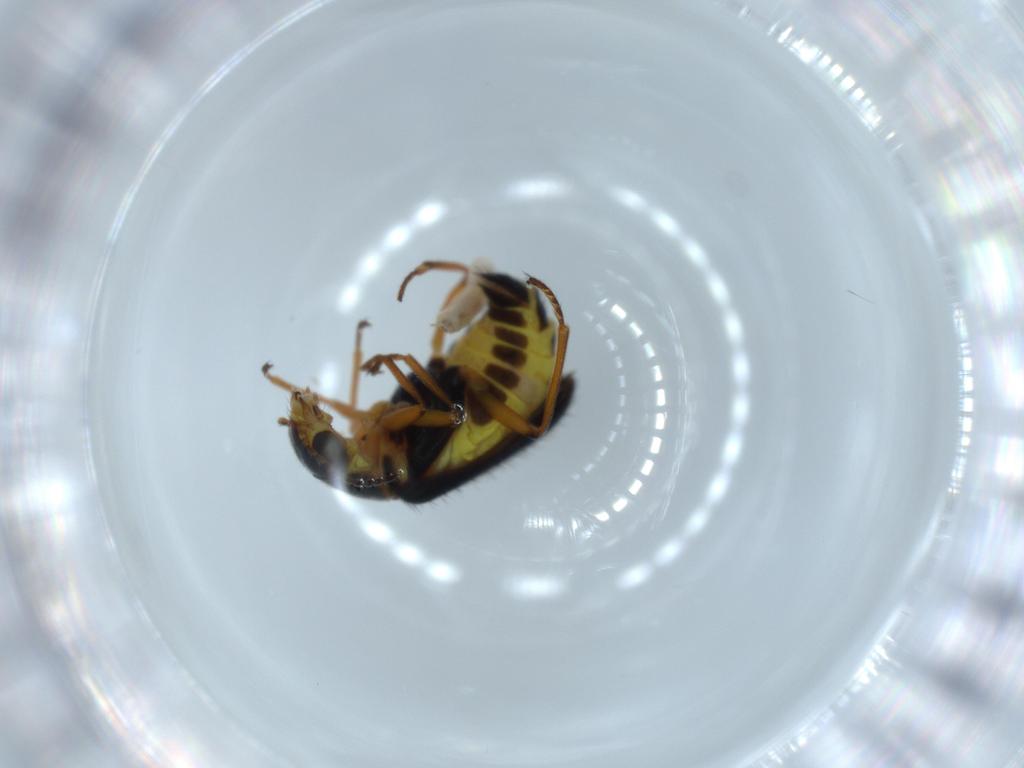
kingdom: Animalia
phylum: Arthropoda
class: Insecta
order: Coleoptera
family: Melyridae
